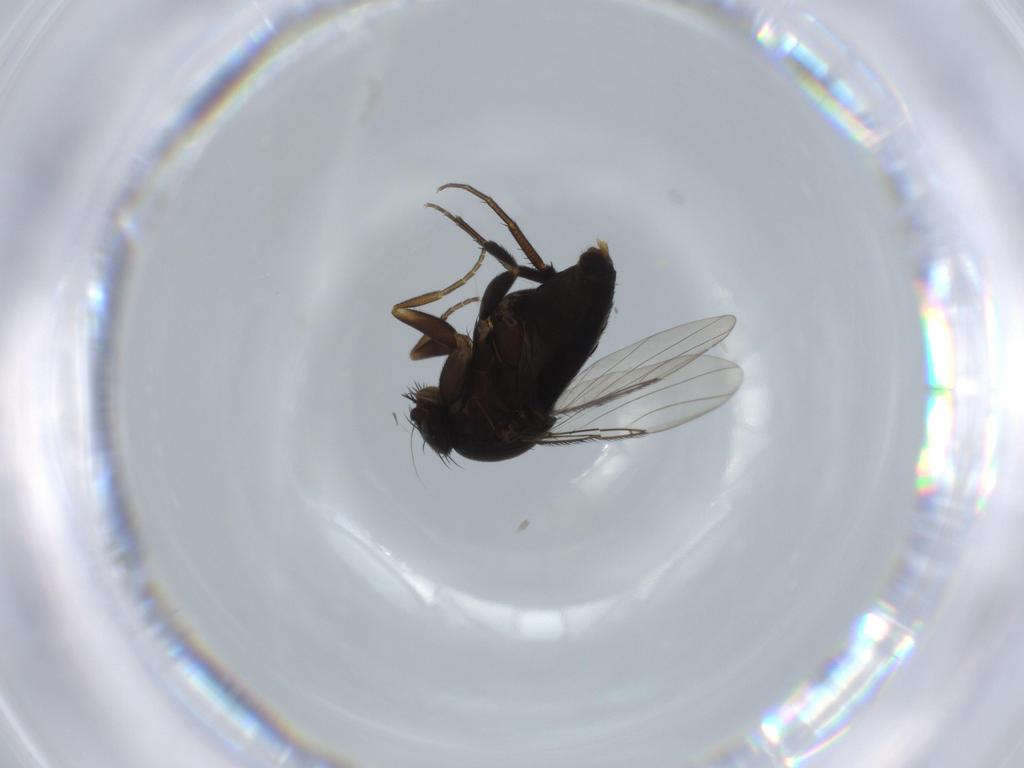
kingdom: Animalia
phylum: Arthropoda
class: Insecta
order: Diptera
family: Phoridae
